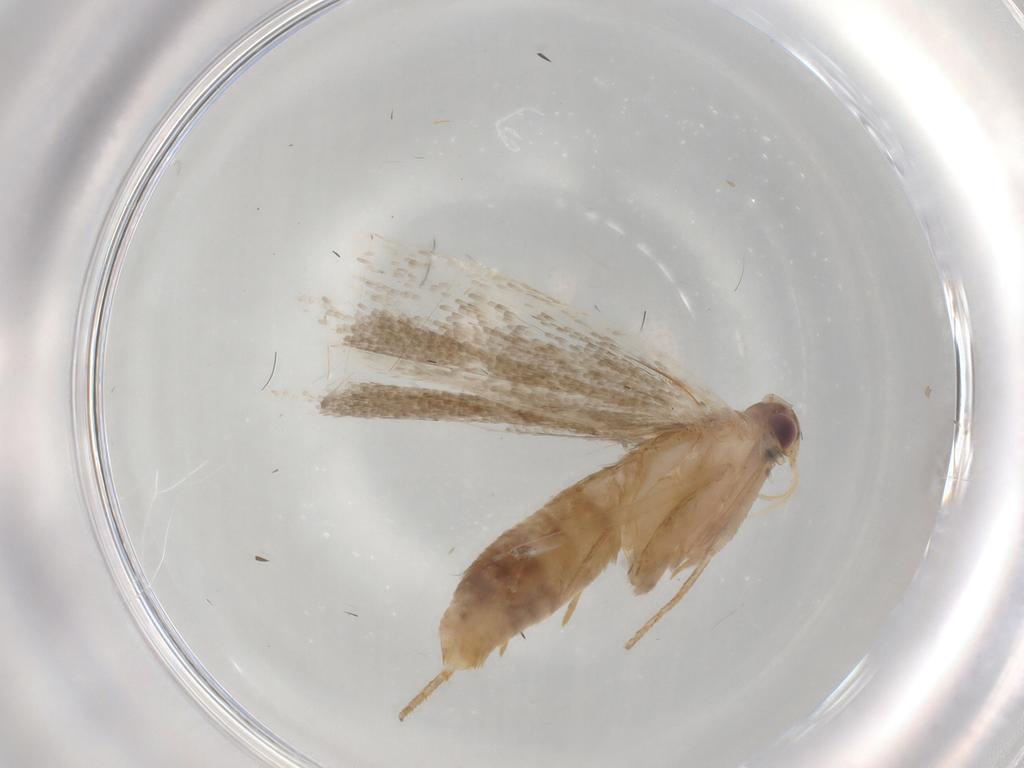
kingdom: Animalia
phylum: Arthropoda
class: Insecta
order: Lepidoptera
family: Gelechiidae
